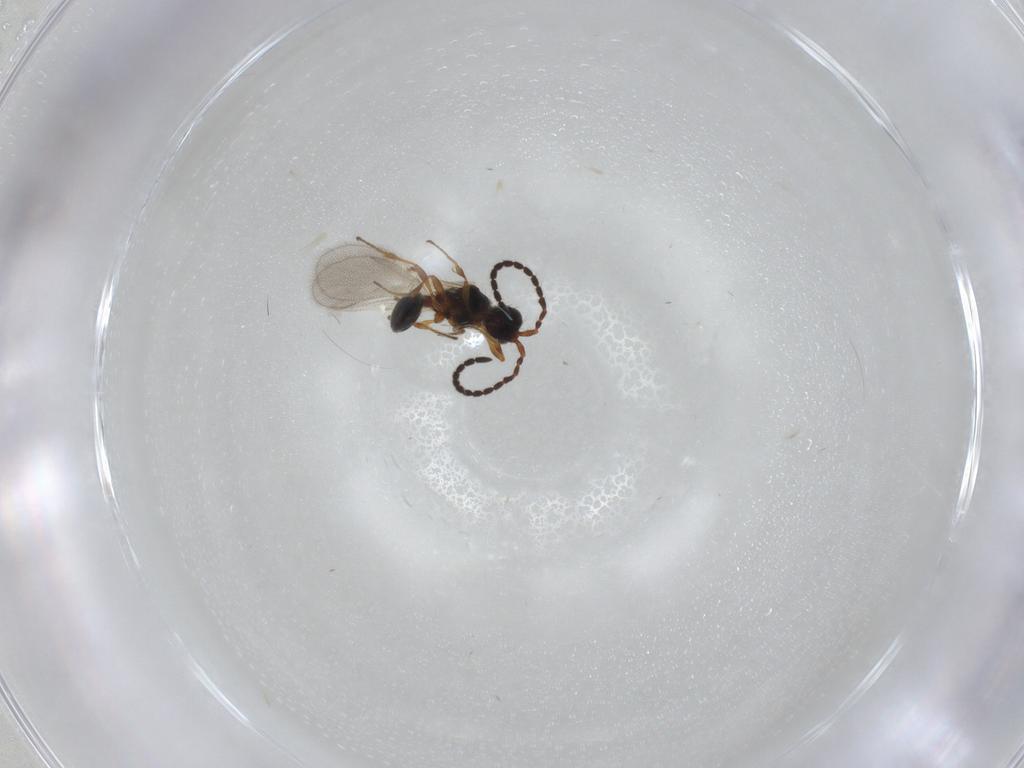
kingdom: Animalia
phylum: Arthropoda
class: Insecta
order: Hymenoptera
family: Diapriidae
